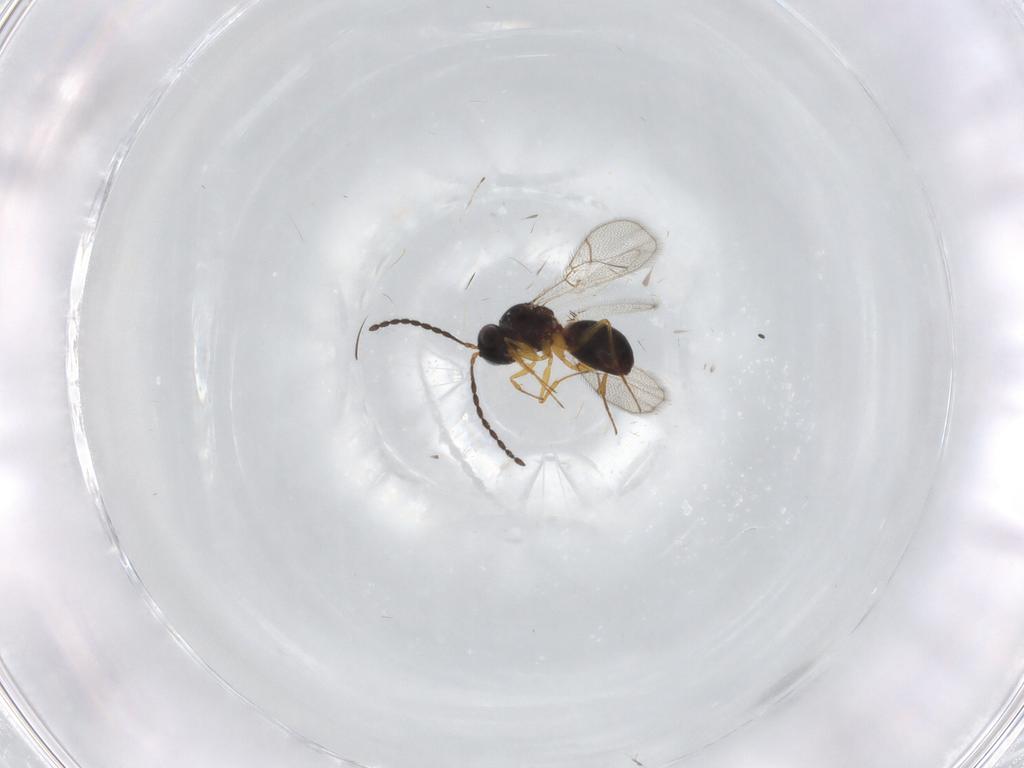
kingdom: Animalia
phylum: Arthropoda
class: Insecta
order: Hymenoptera
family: Figitidae
